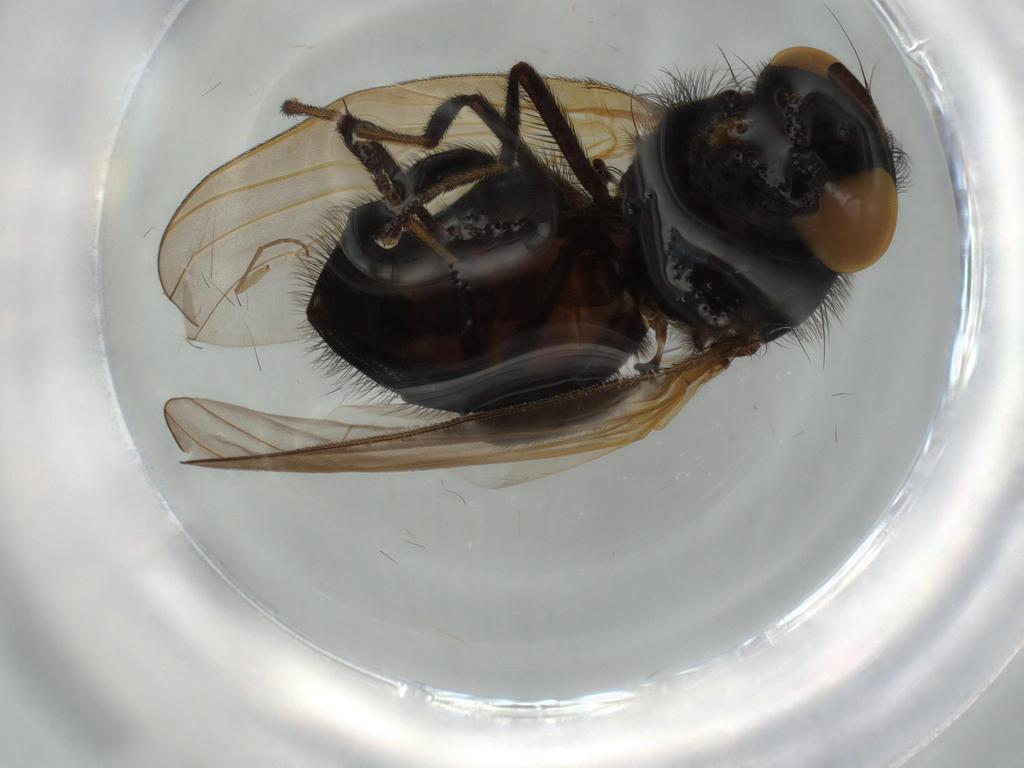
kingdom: Animalia
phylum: Arthropoda
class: Insecta
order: Diptera
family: Lonchaeidae
